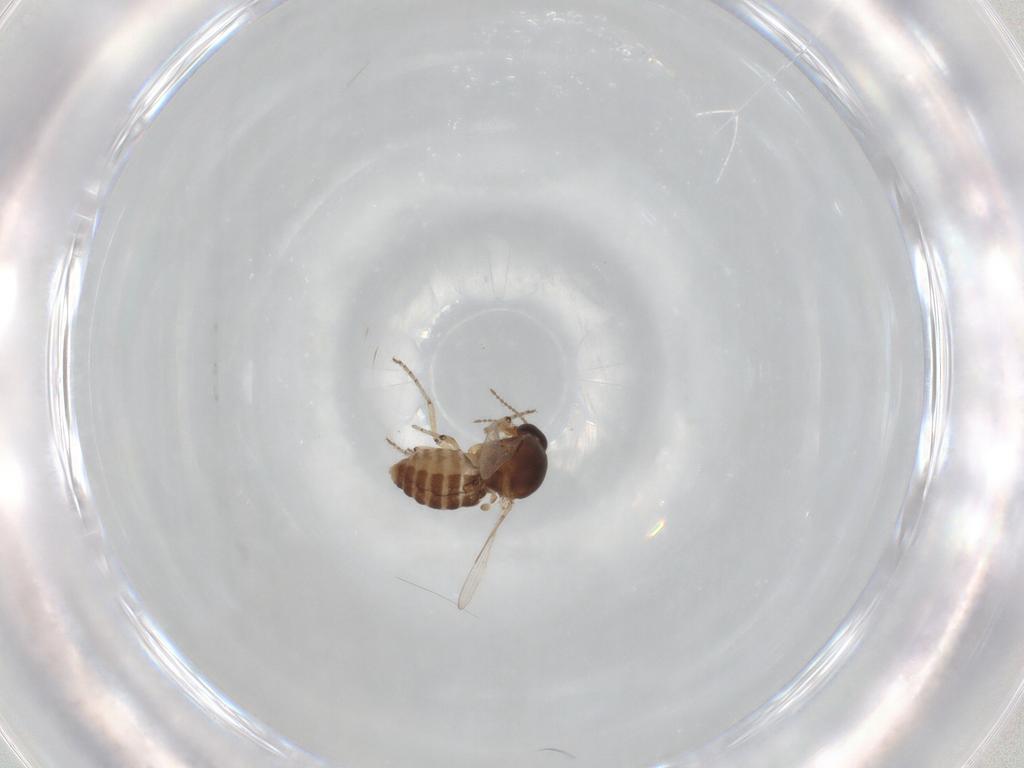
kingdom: Animalia
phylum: Arthropoda
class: Insecta
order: Diptera
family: Ceratopogonidae
